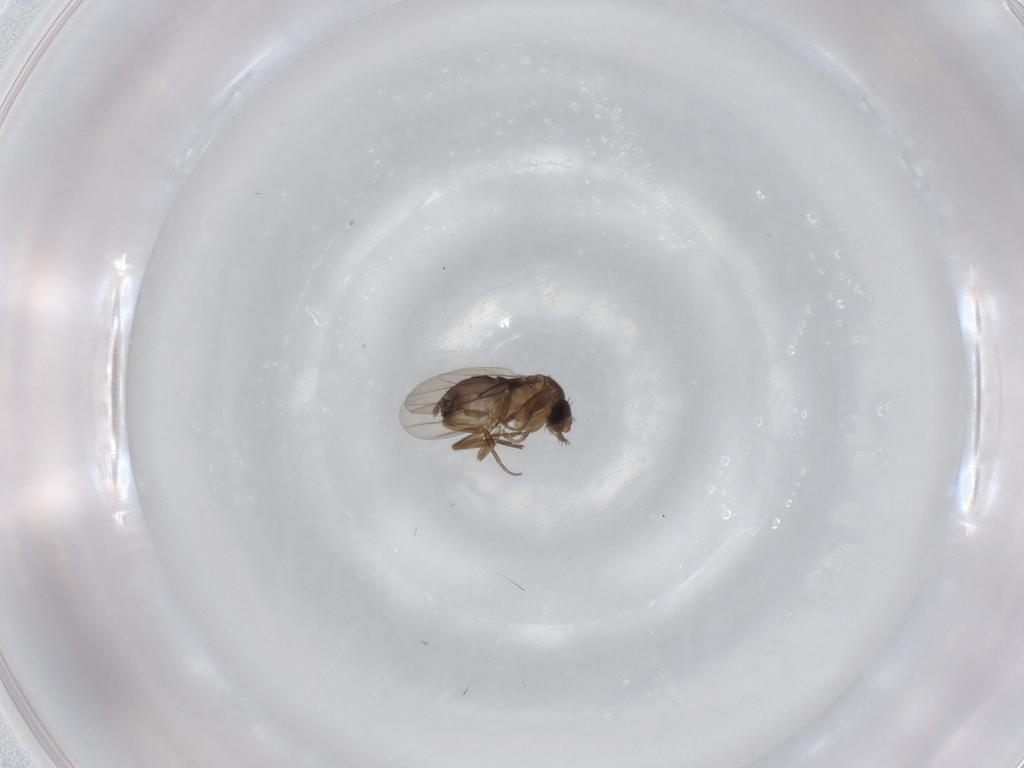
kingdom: Animalia
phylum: Arthropoda
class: Insecta
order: Diptera
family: Phoridae
